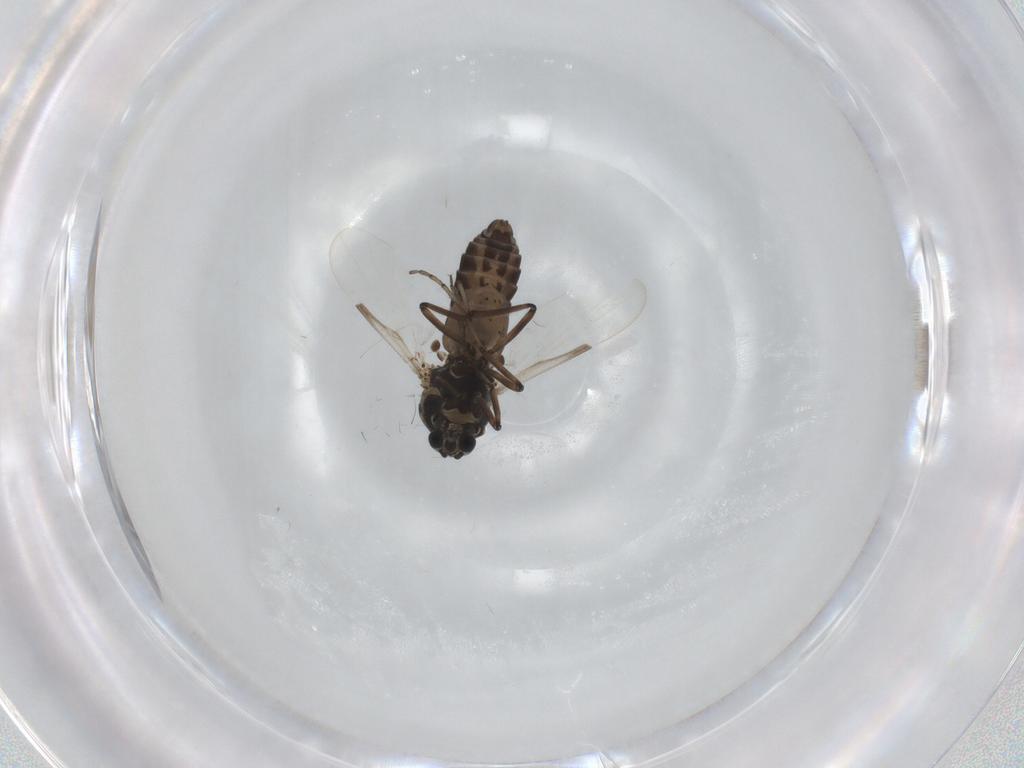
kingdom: Animalia
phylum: Arthropoda
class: Insecta
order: Diptera
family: Ceratopogonidae
